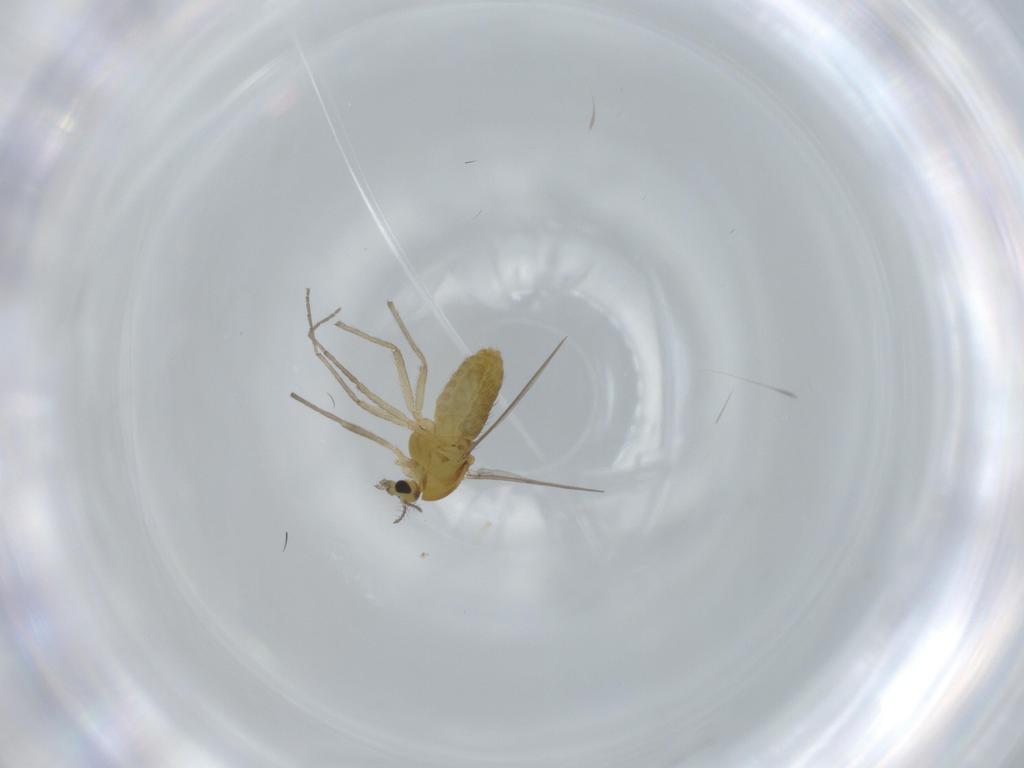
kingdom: Animalia
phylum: Arthropoda
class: Insecta
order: Diptera
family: Chironomidae
